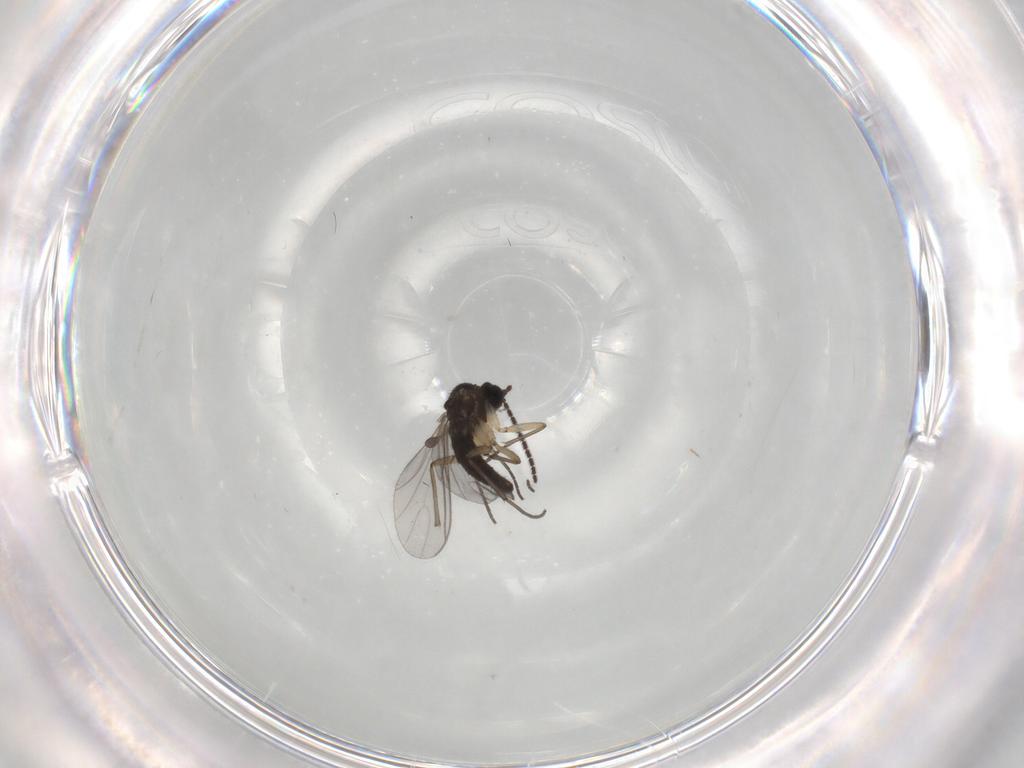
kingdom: Animalia
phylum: Arthropoda
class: Insecta
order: Diptera
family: Sciaridae
